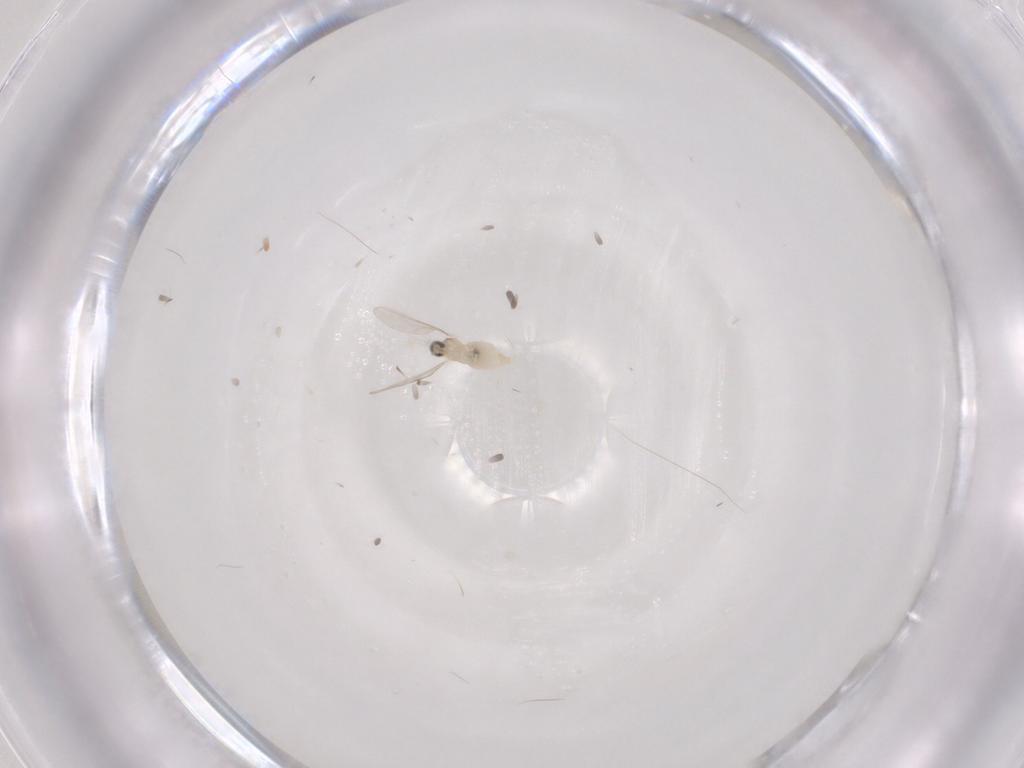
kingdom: Animalia
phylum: Arthropoda
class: Insecta
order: Diptera
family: Cecidomyiidae
